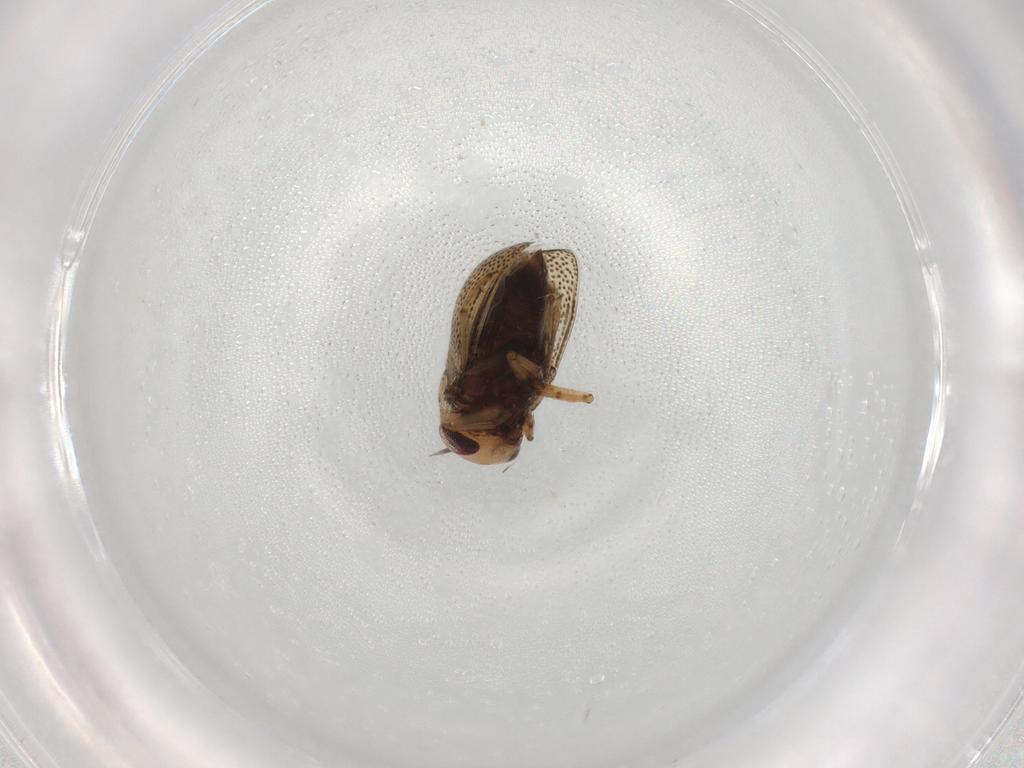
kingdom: Animalia
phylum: Arthropoda
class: Insecta
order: Hemiptera
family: Pleidae
